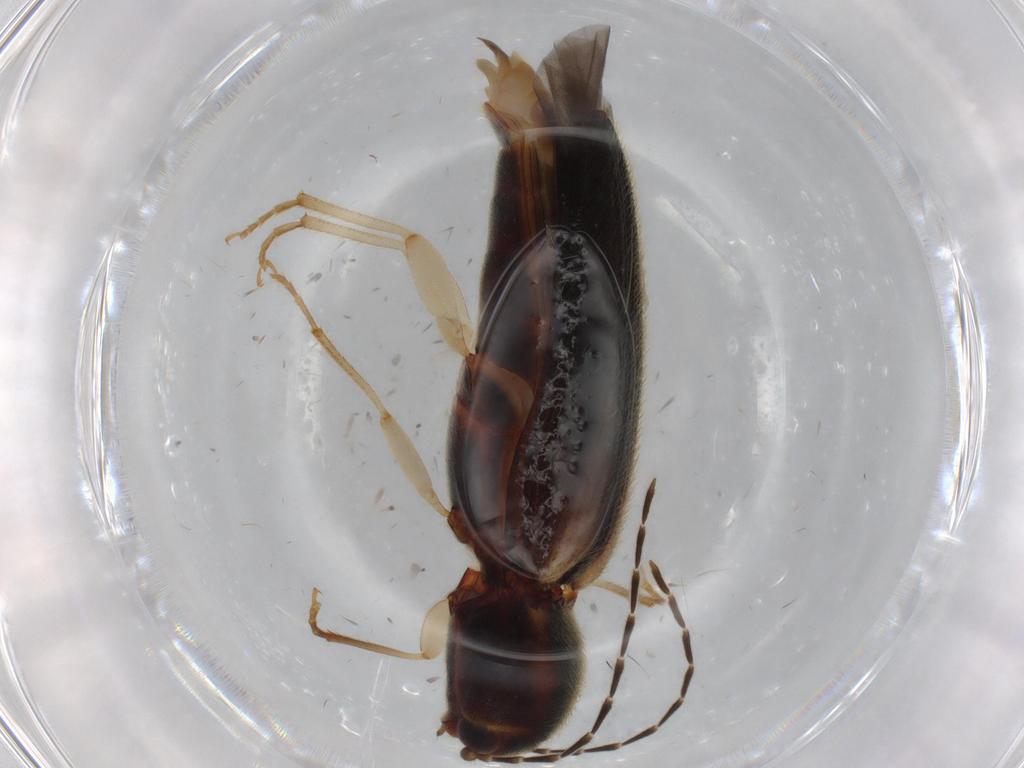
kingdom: Animalia
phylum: Arthropoda
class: Insecta
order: Coleoptera
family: Elateridae
